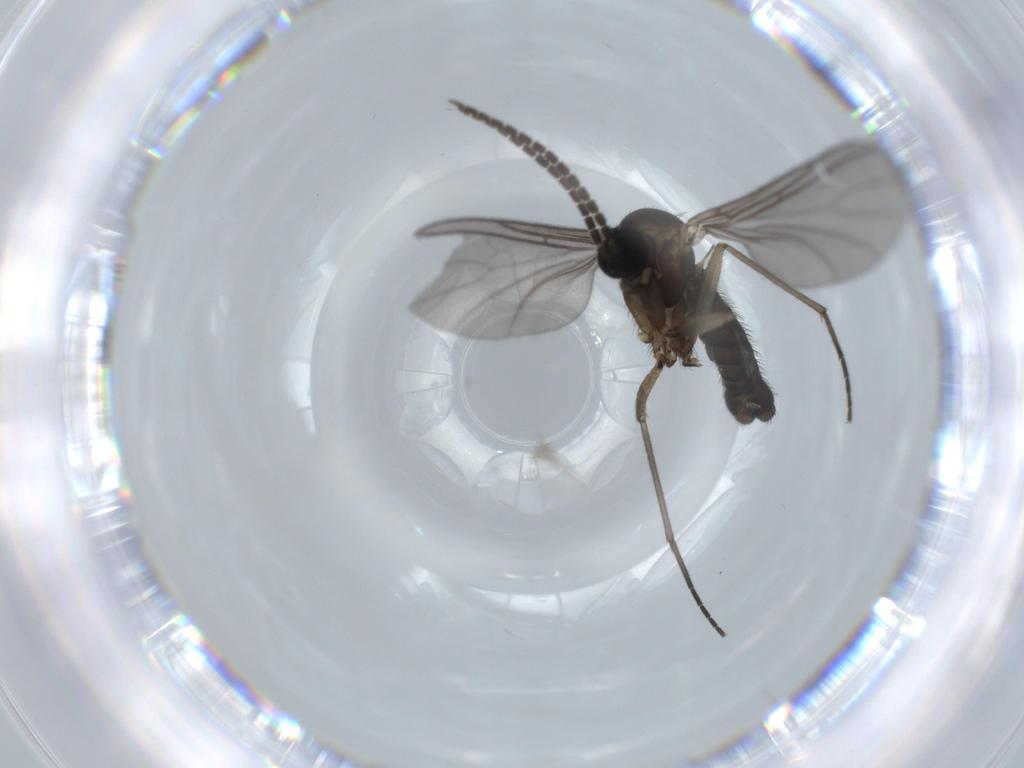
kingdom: Animalia
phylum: Arthropoda
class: Insecta
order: Diptera
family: Sciaridae
